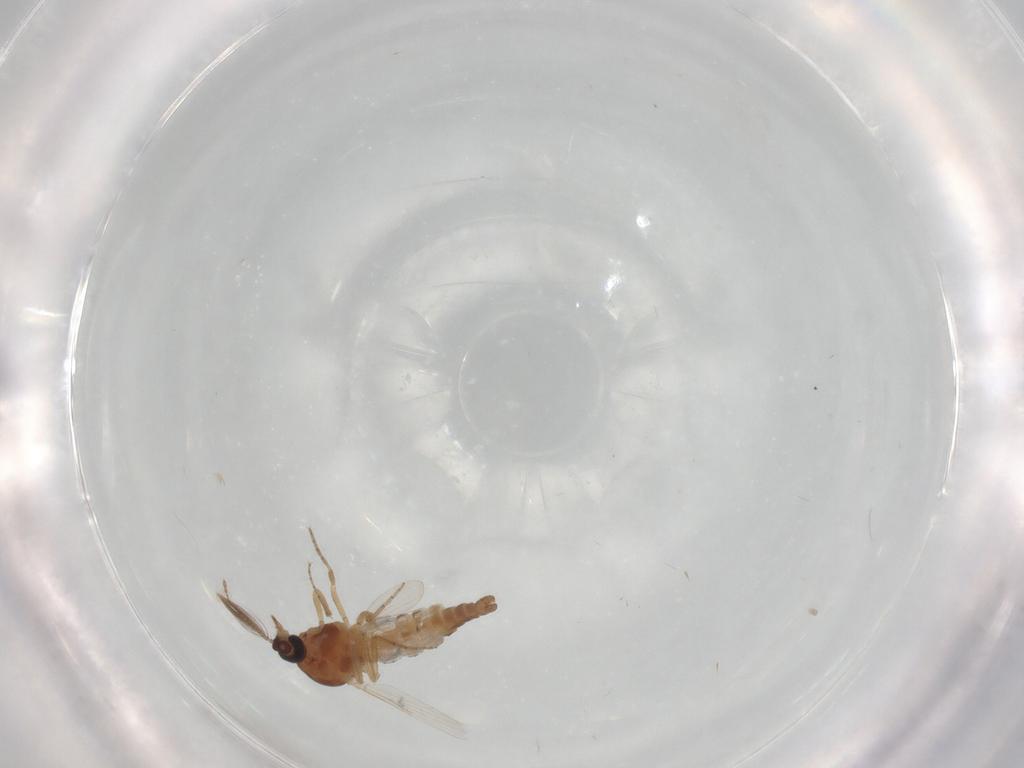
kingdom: Animalia
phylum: Arthropoda
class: Insecta
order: Diptera
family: Ceratopogonidae
